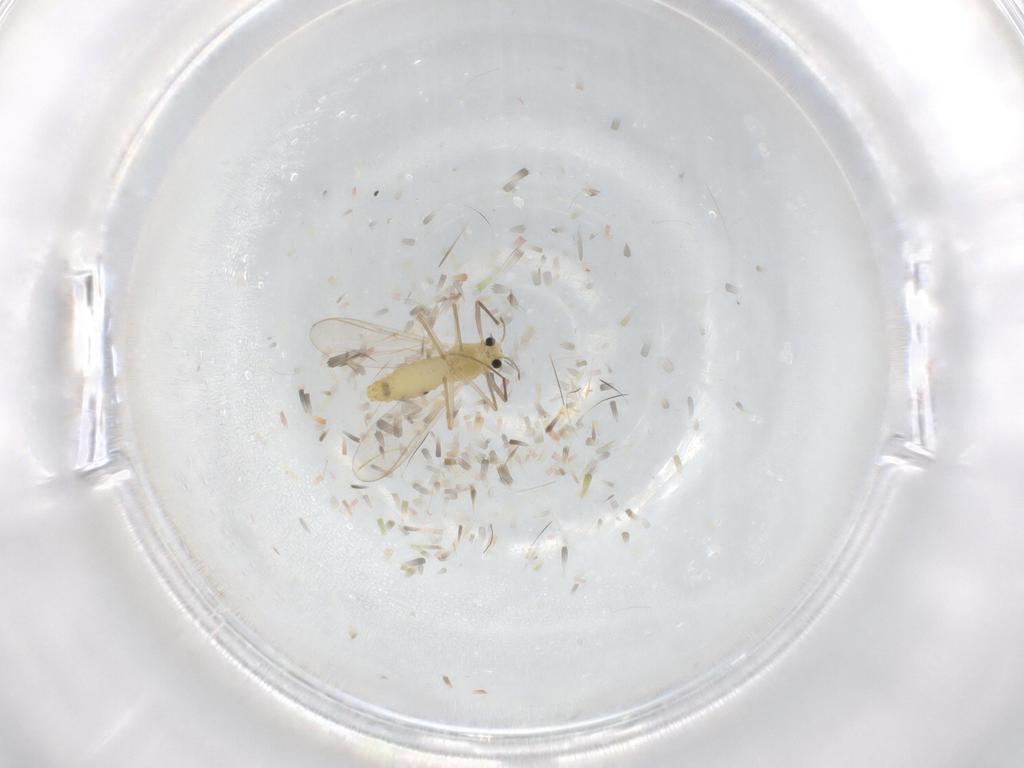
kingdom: Animalia
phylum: Arthropoda
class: Insecta
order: Diptera
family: Chironomidae
